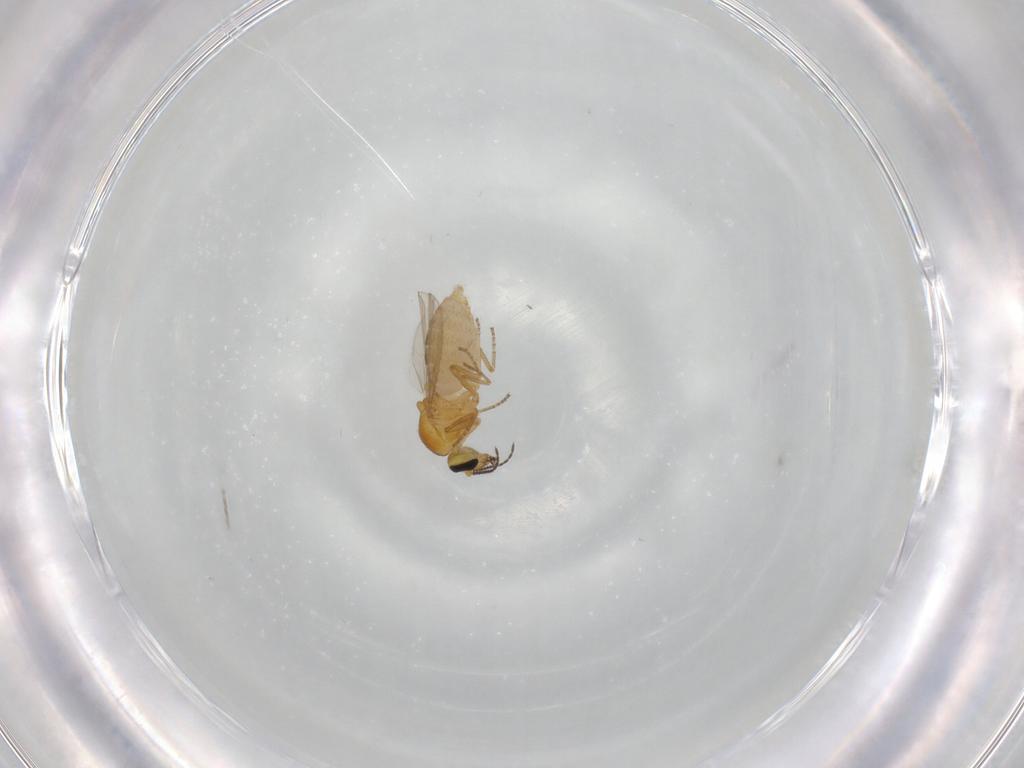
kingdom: Animalia
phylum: Arthropoda
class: Insecta
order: Diptera
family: Ceratopogonidae
